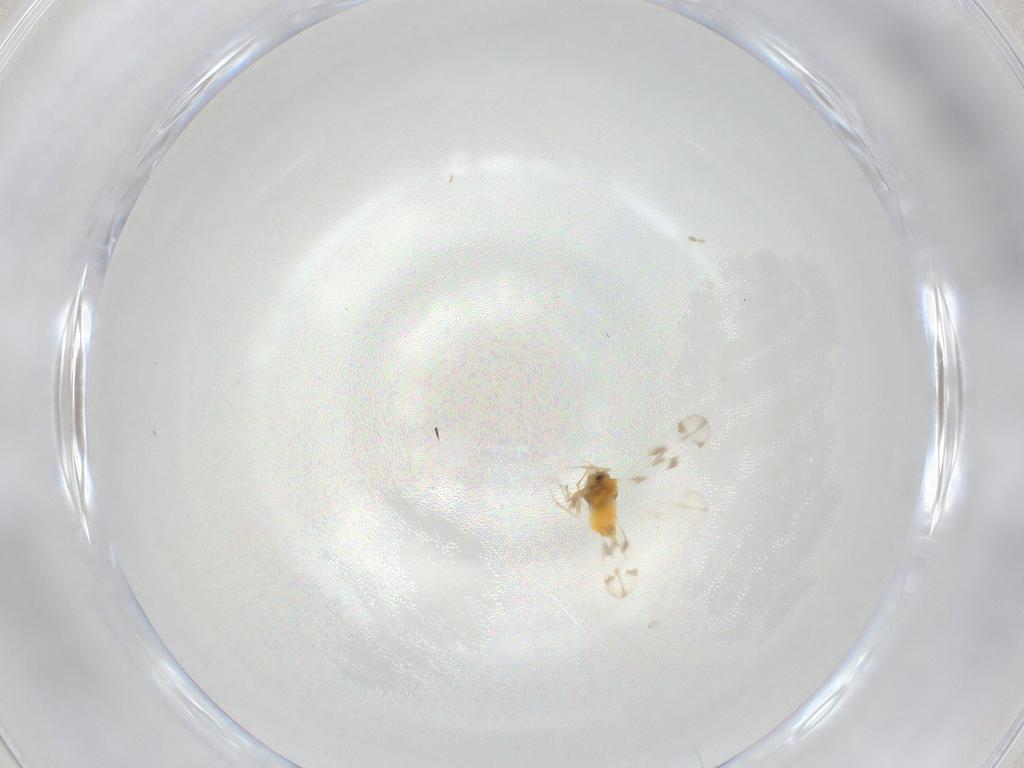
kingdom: Animalia
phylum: Arthropoda
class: Insecta
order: Hemiptera
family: Aleyrodidae
